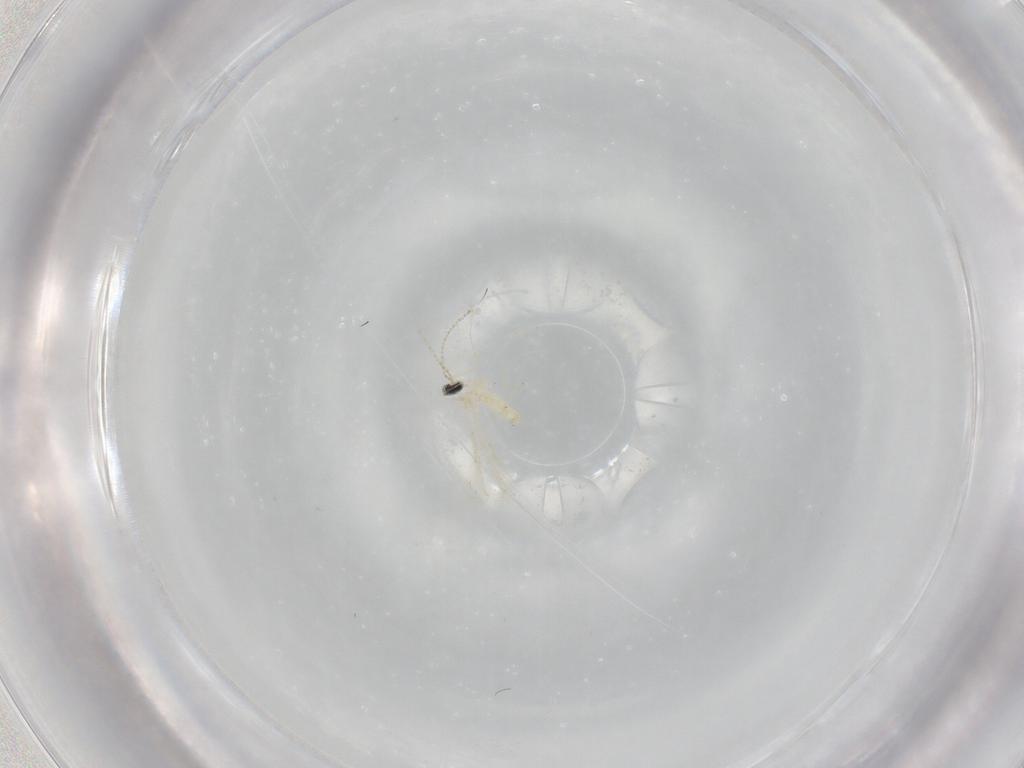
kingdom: Animalia
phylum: Arthropoda
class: Insecta
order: Diptera
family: Cecidomyiidae
